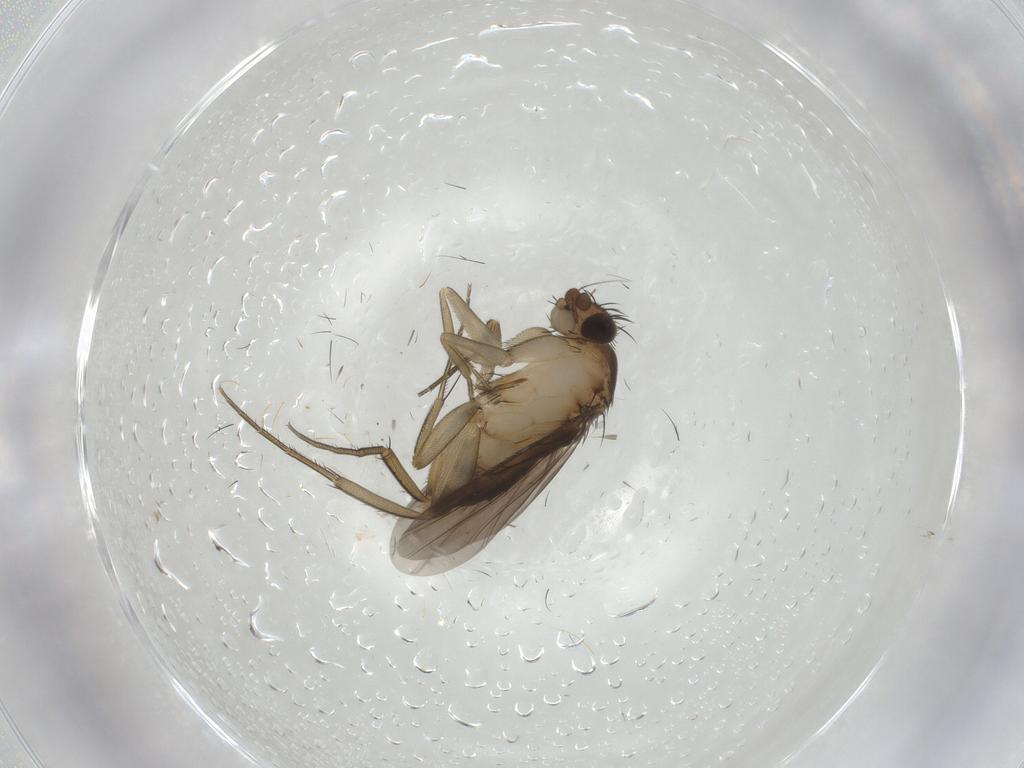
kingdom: Animalia
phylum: Arthropoda
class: Insecta
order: Diptera
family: Phoridae
